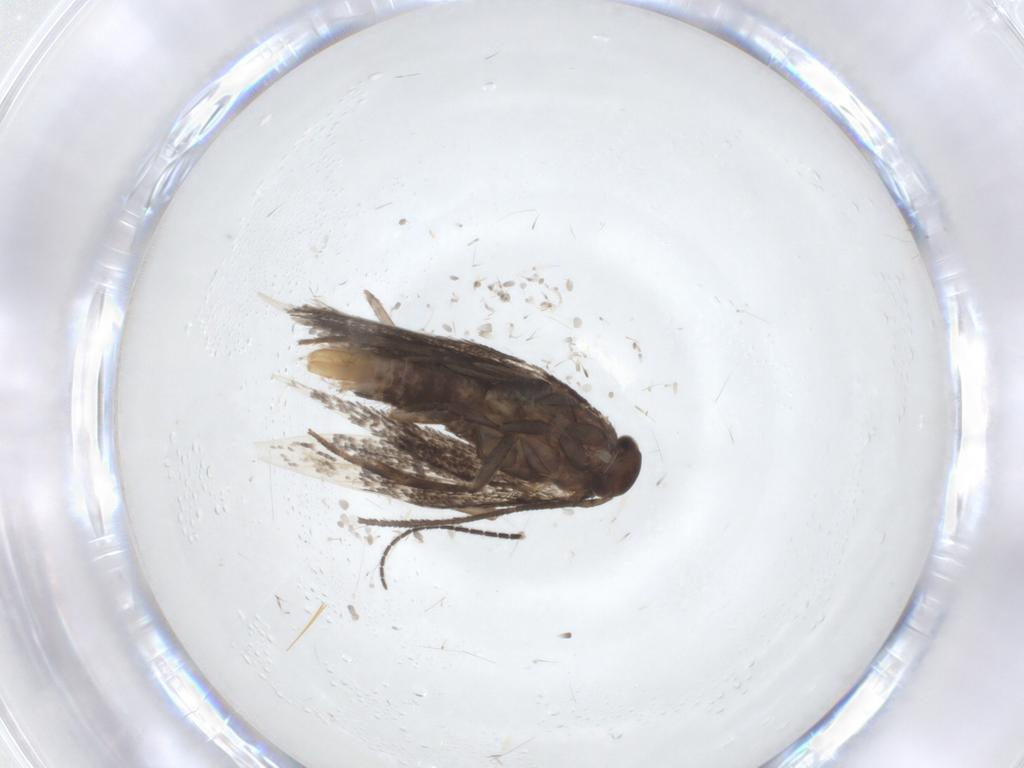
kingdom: Animalia
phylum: Arthropoda
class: Insecta
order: Lepidoptera
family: Elachistidae
